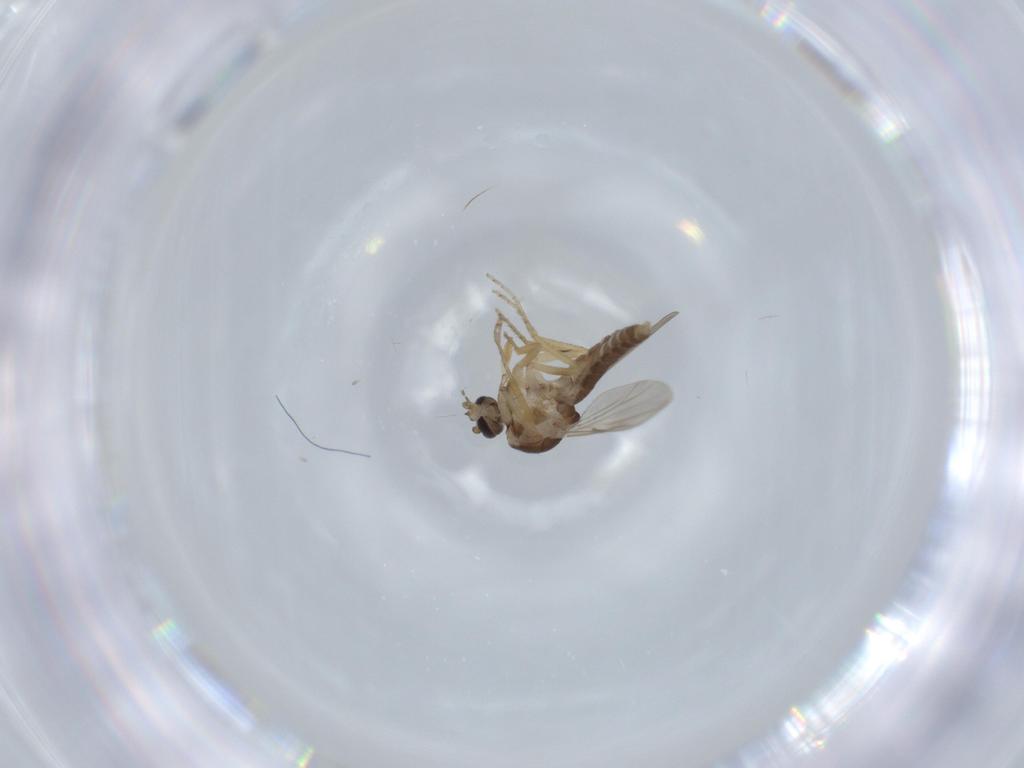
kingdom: Animalia
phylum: Arthropoda
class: Insecta
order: Diptera
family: Ceratopogonidae
